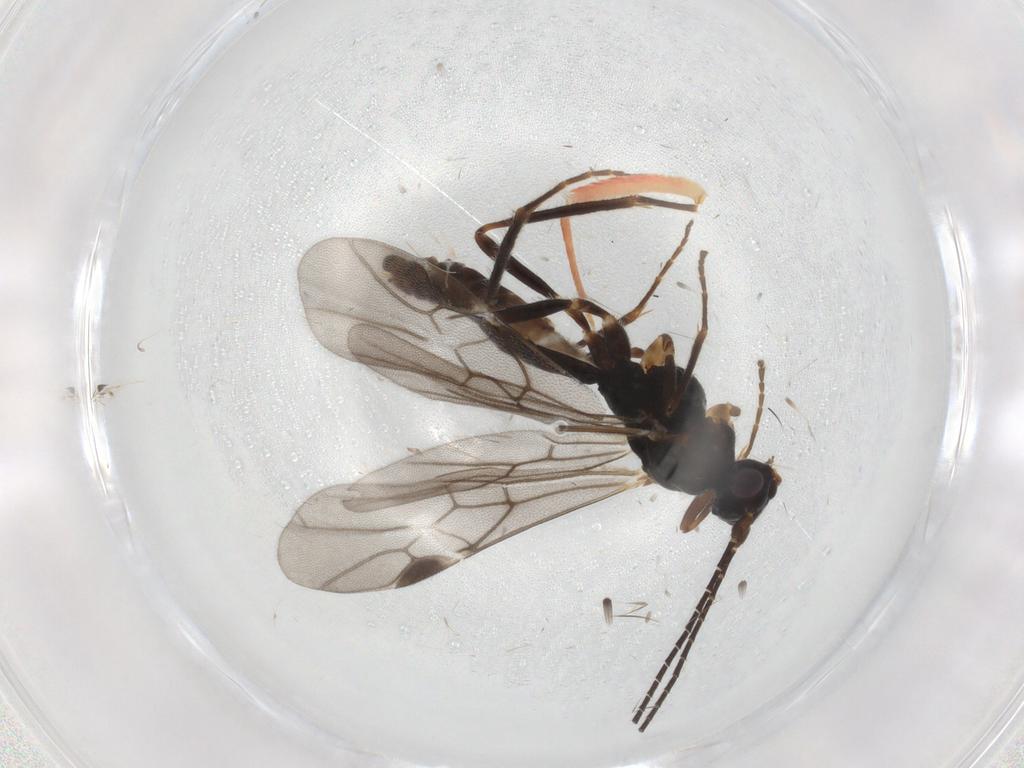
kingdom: Animalia
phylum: Arthropoda
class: Insecta
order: Hymenoptera
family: Braconidae
